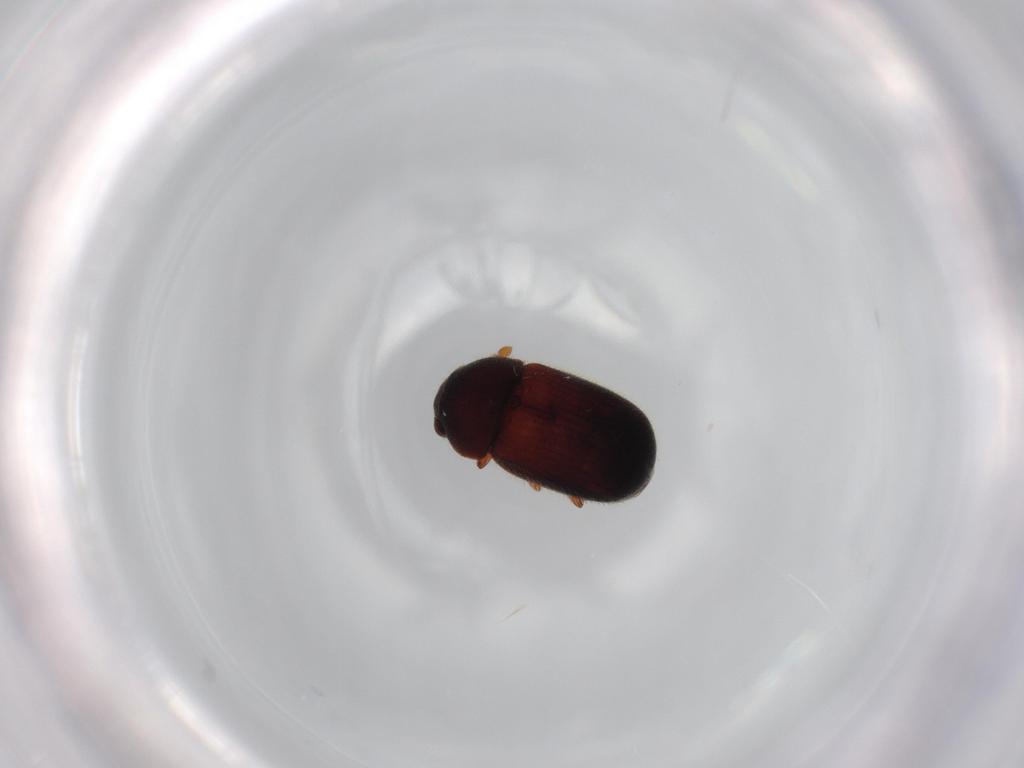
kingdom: Animalia
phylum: Arthropoda
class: Insecta
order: Coleoptera
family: Sphindidae
